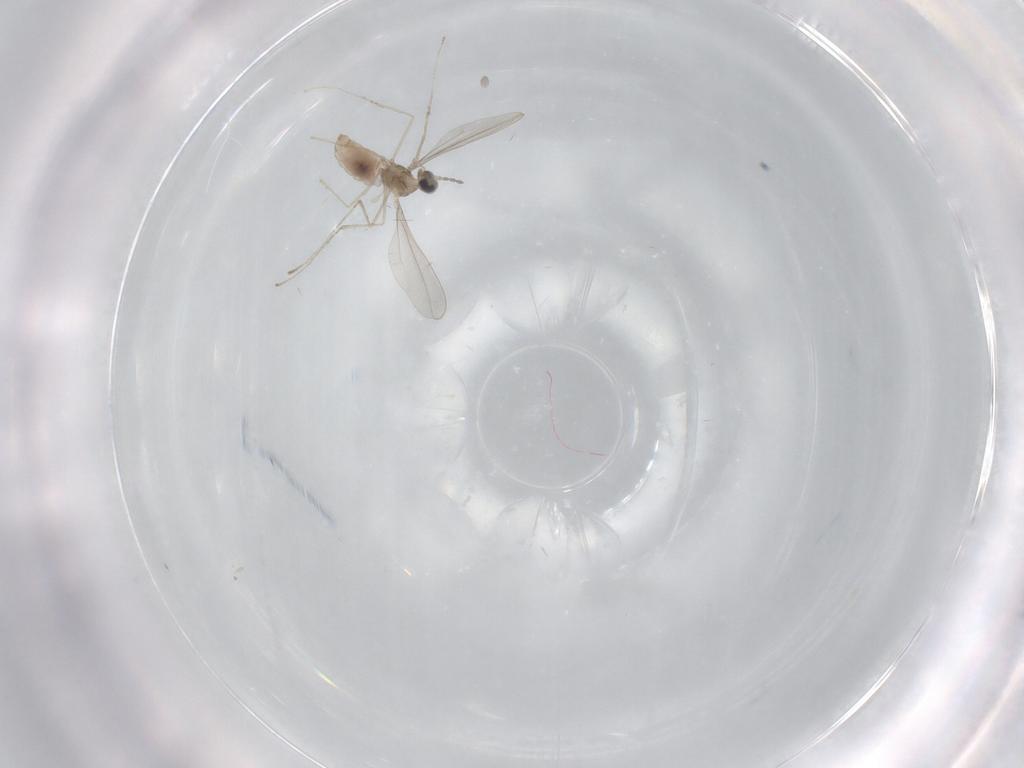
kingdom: Animalia
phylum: Arthropoda
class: Insecta
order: Diptera
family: Cecidomyiidae
